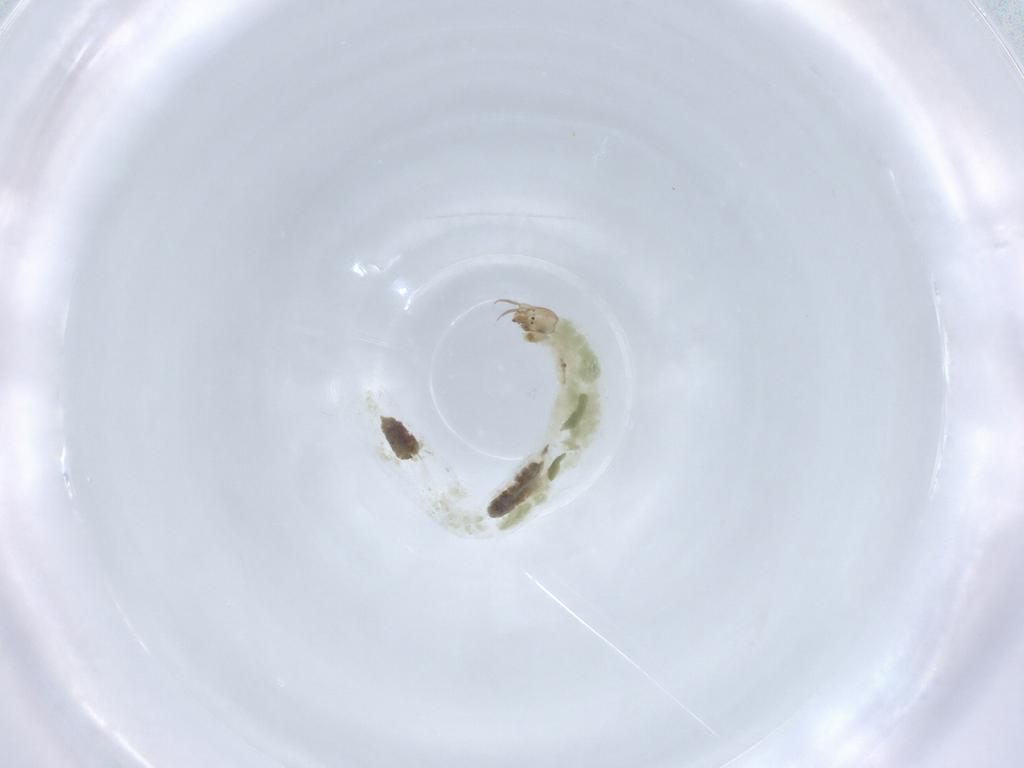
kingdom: Animalia
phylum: Arthropoda
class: Insecta
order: Diptera
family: Chironomidae
